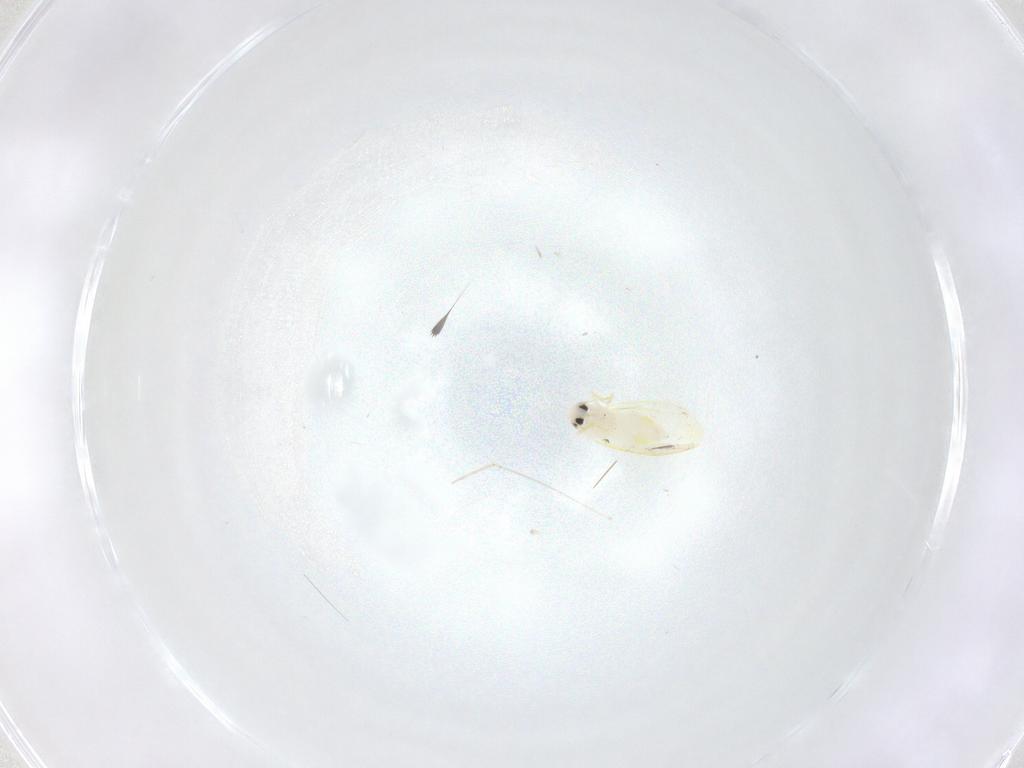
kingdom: Animalia
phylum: Arthropoda
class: Insecta
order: Hemiptera
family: Aleyrodidae
